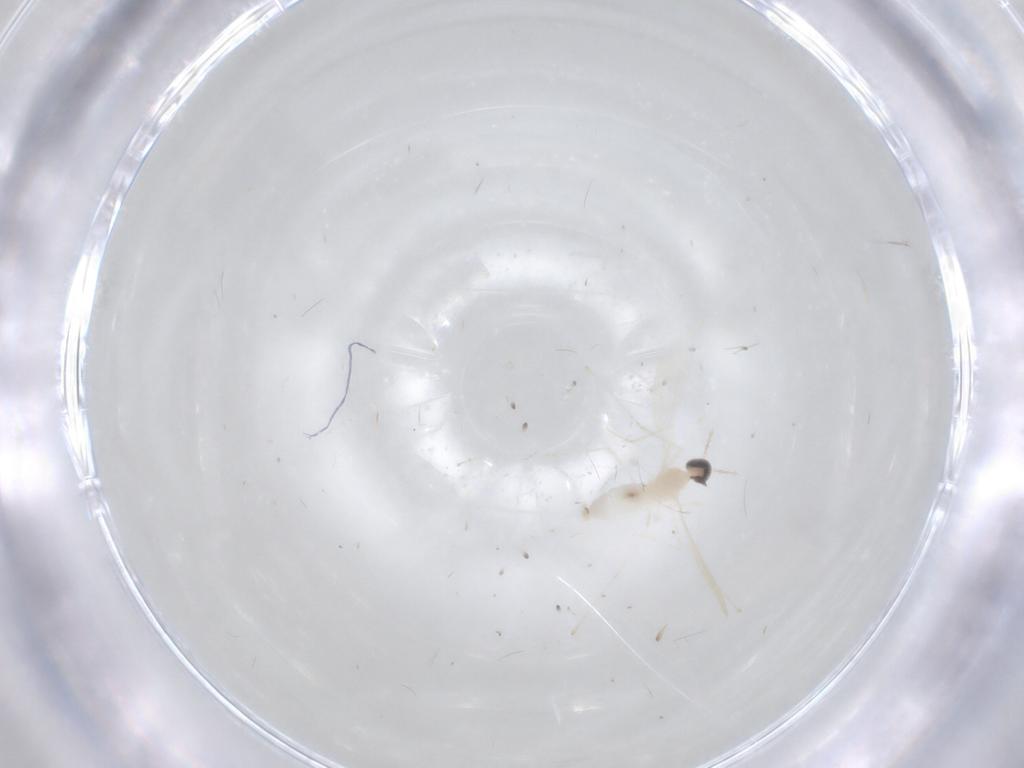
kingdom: Animalia
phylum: Arthropoda
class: Insecta
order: Diptera
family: Cecidomyiidae
